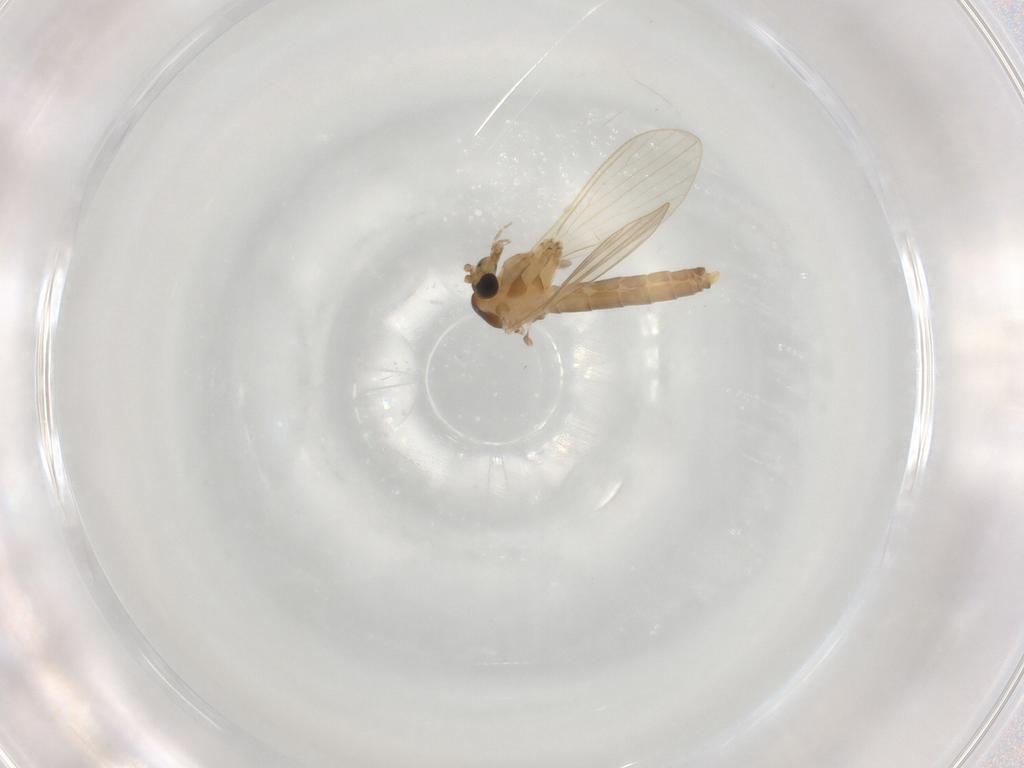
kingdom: Animalia
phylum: Arthropoda
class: Insecta
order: Diptera
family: Psychodidae
